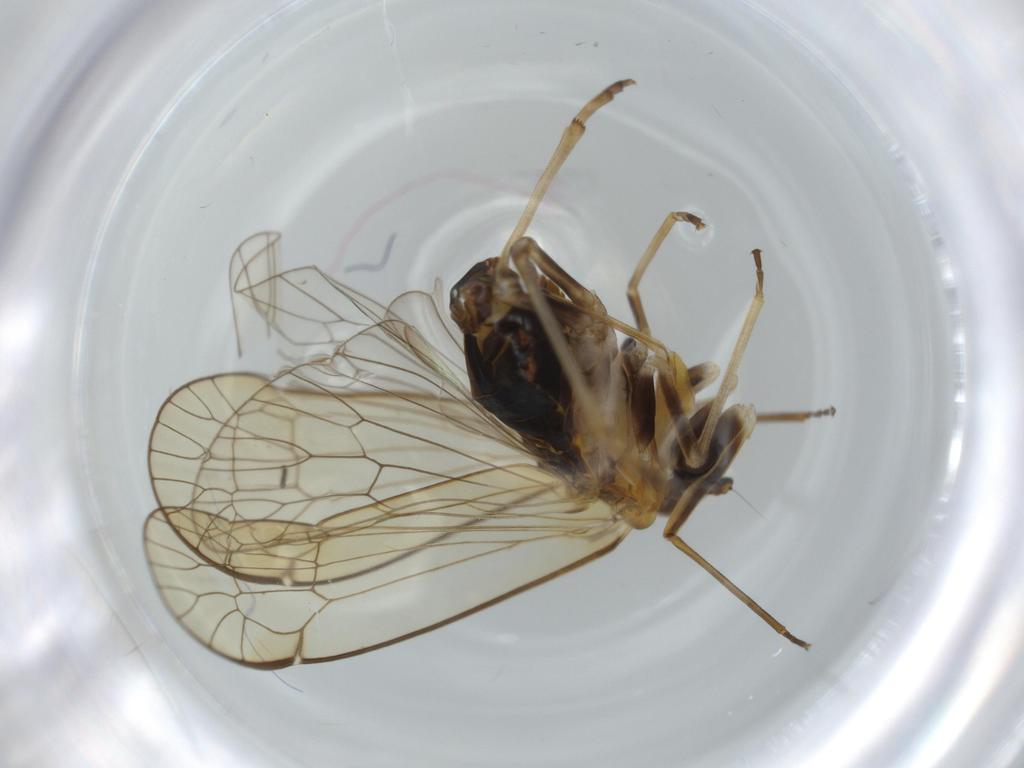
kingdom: Animalia
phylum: Arthropoda
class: Insecta
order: Hemiptera
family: Kinnaridae
